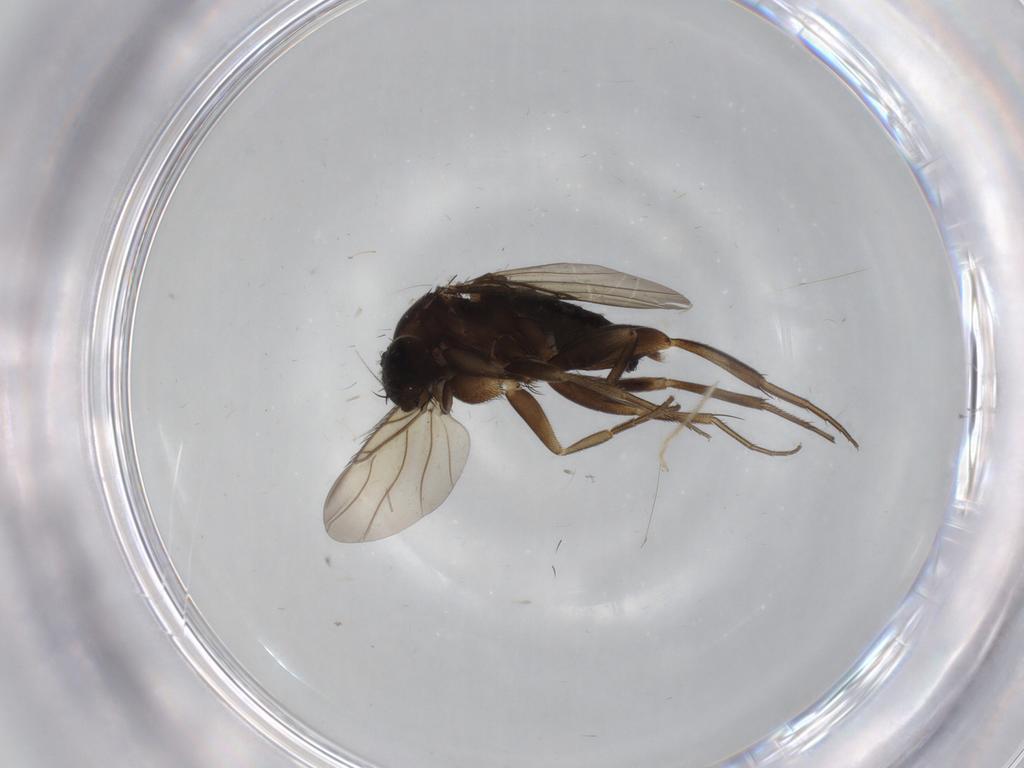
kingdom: Animalia
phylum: Arthropoda
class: Insecta
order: Diptera
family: Phoridae
